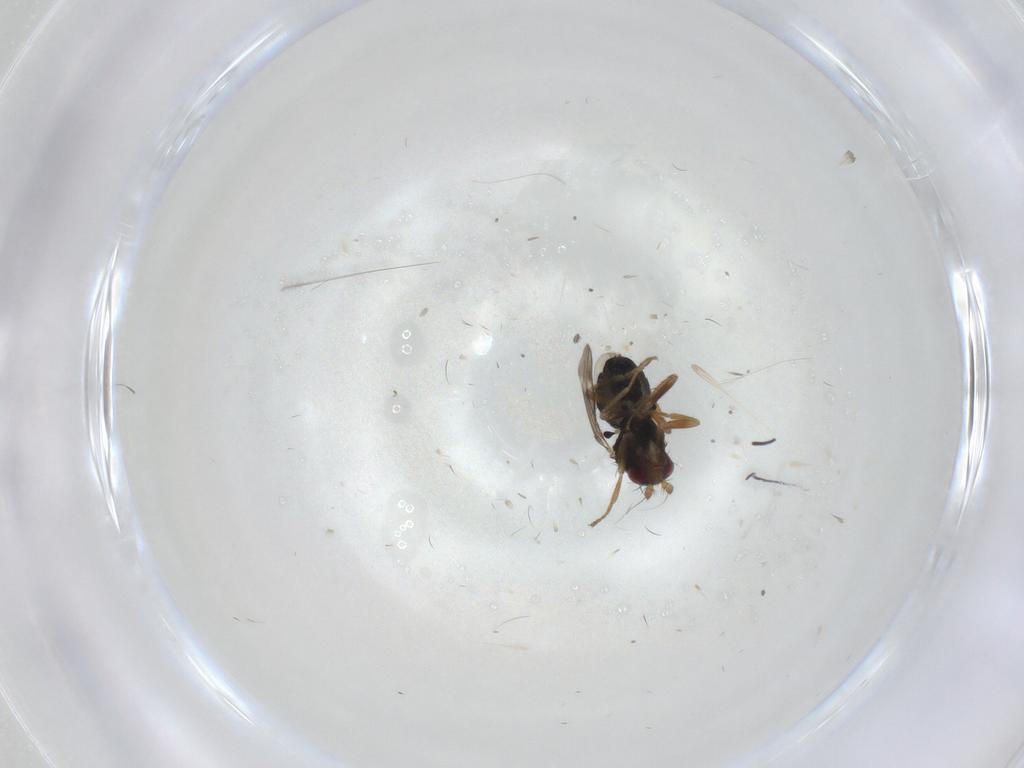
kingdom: Animalia
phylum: Arthropoda
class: Insecta
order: Diptera
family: Sphaeroceridae
